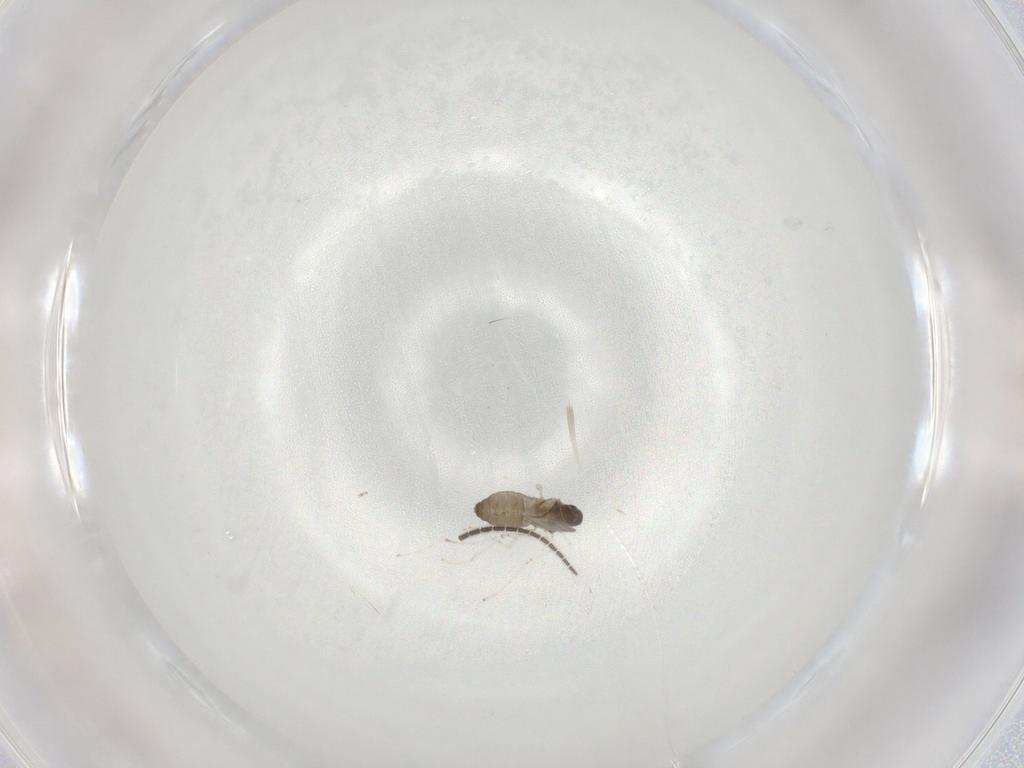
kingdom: Animalia
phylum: Arthropoda
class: Insecta
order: Diptera
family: Cecidomyiidae
